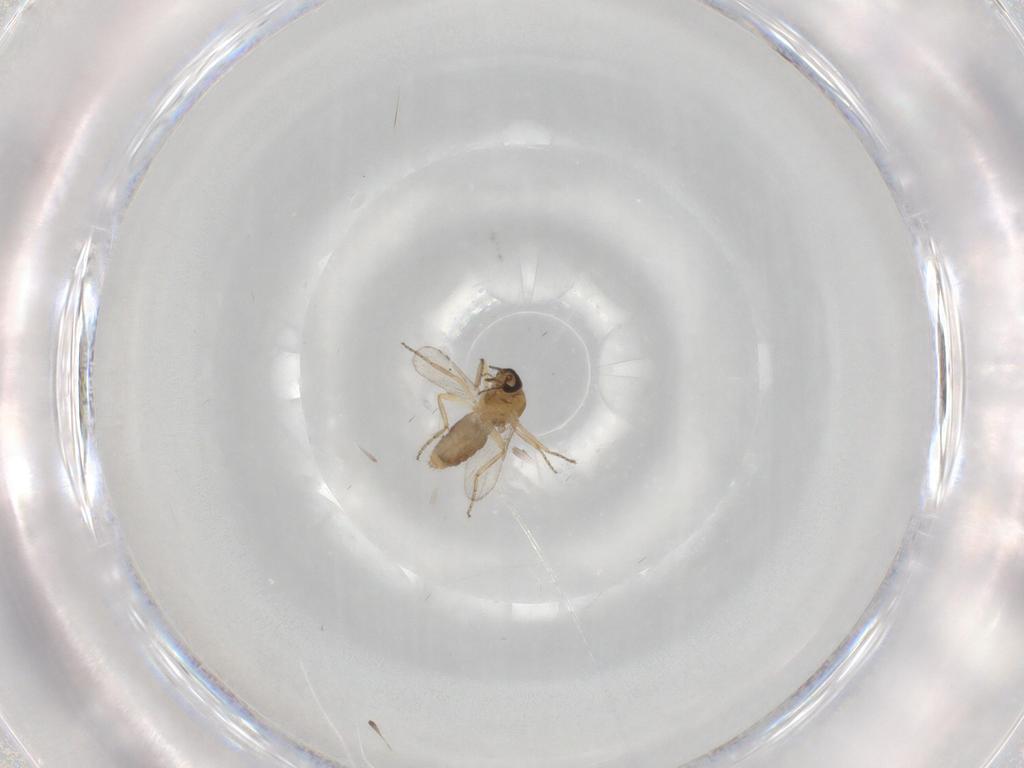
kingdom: Animalia
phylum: Arthropoda
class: Insecta
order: Diptera
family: Ceratopogonidae
